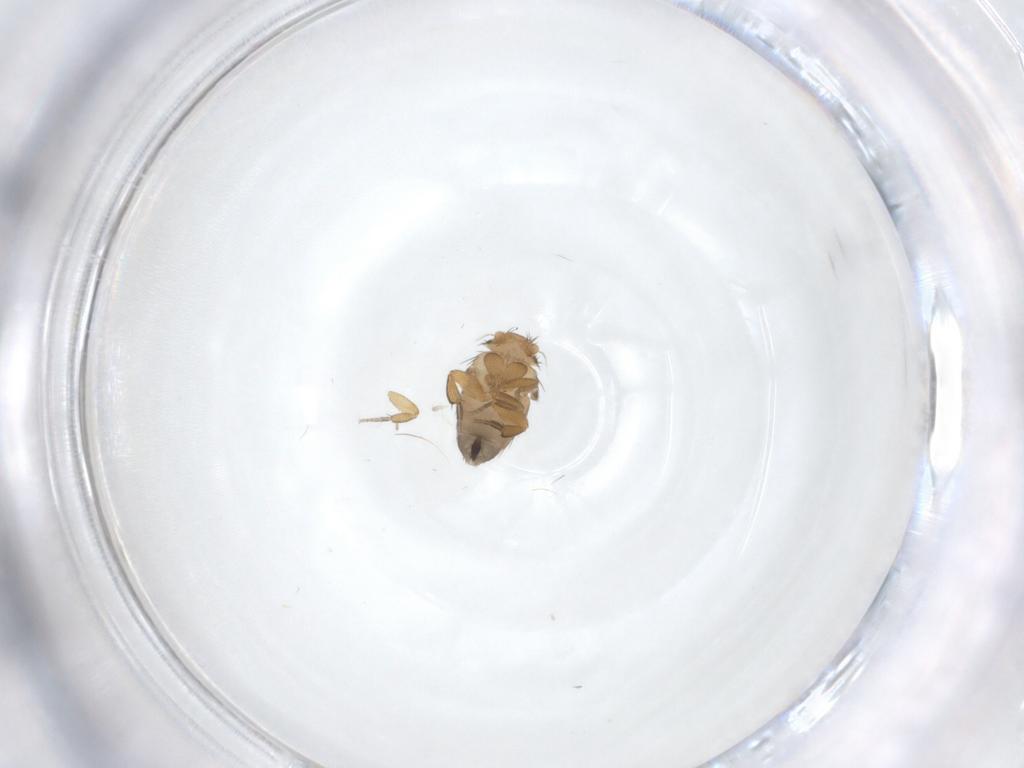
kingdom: Animalia
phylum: Arthropoda
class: Insecta
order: Diptera
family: Phoridae
